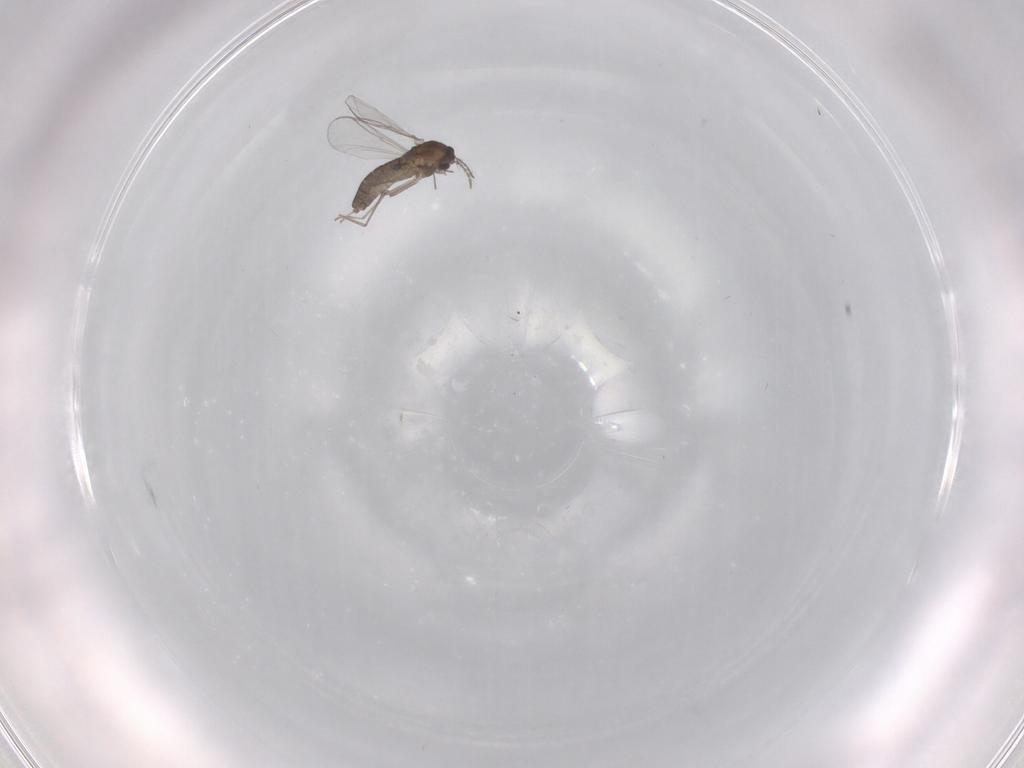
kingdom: Animalia
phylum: Arthropoda
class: Insecta
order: Diptera
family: Chironomidae
